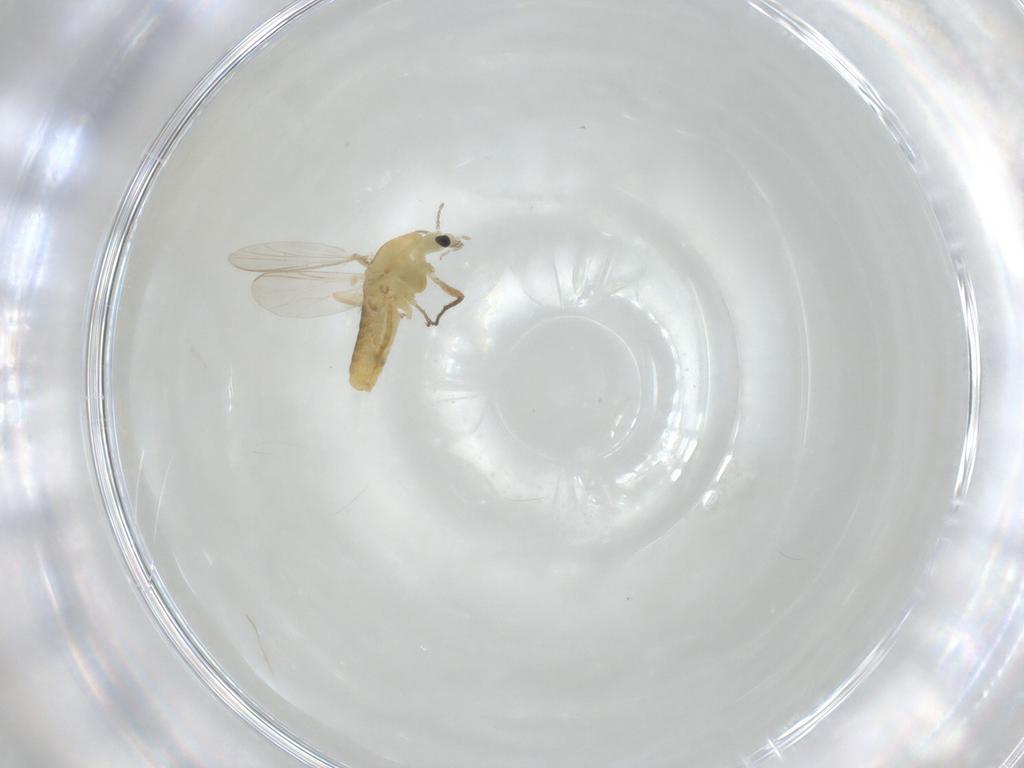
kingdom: Animalia
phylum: Arthropoda
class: Insecta
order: Diptera
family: Chironomidae
